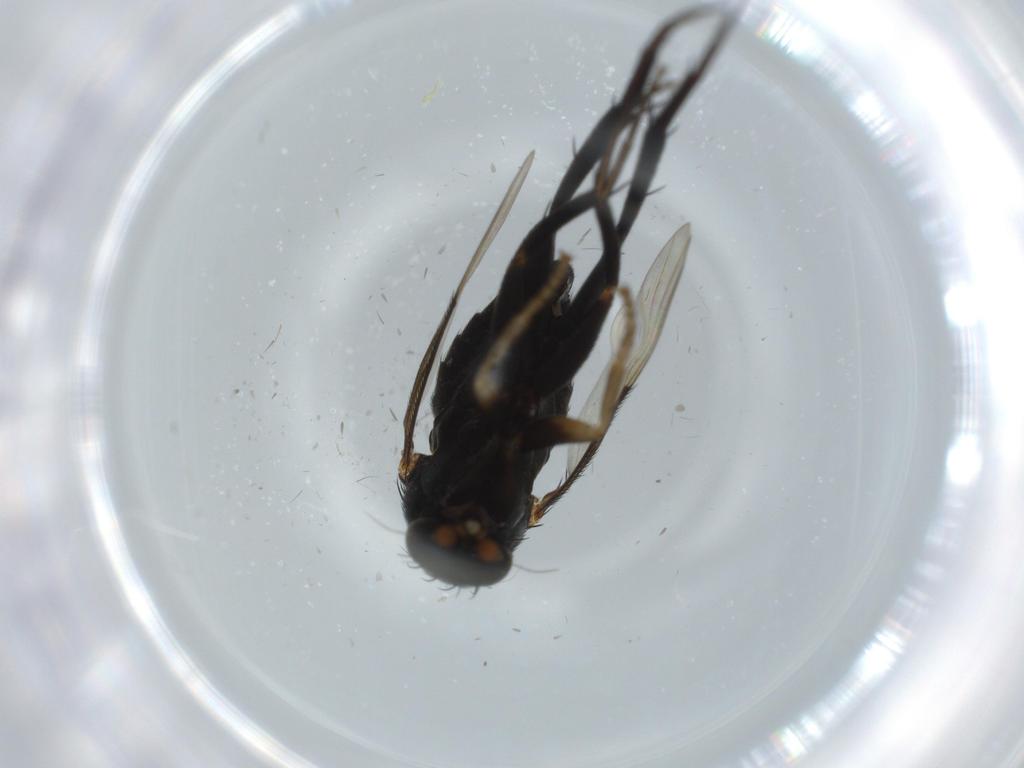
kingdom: Animalia
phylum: Arthropoda
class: Insecta
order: Diptera
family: Phoridae
